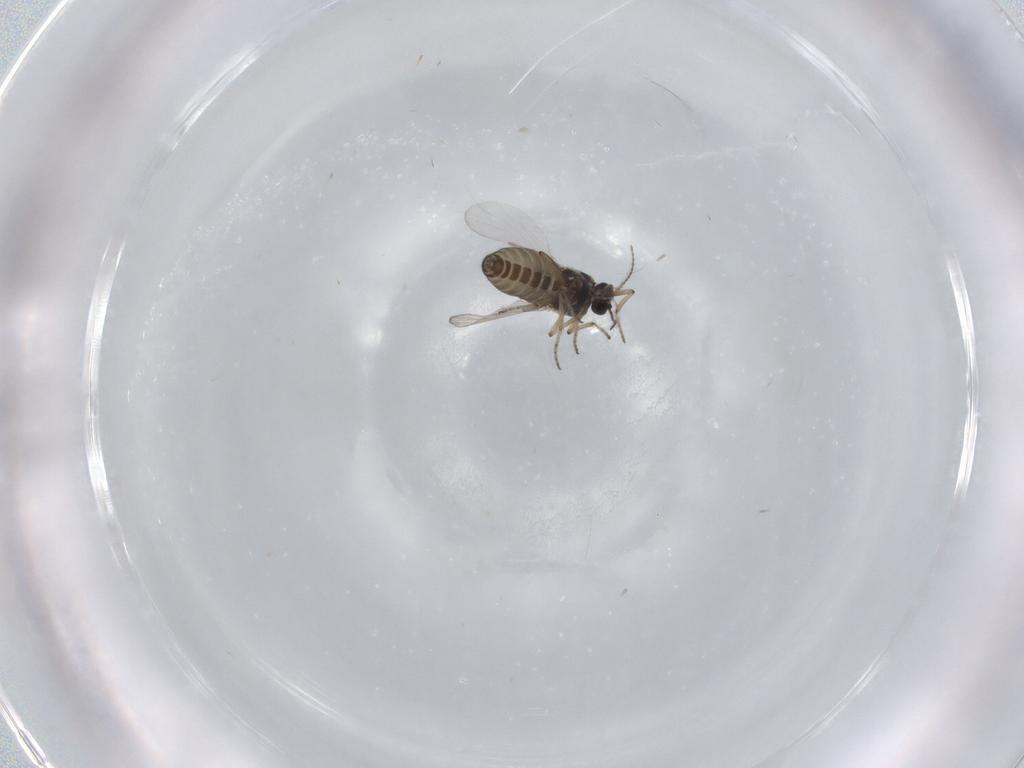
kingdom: Animalia
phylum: Arthropoda
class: Insecta
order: Diptera
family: Ceratopogonidae
